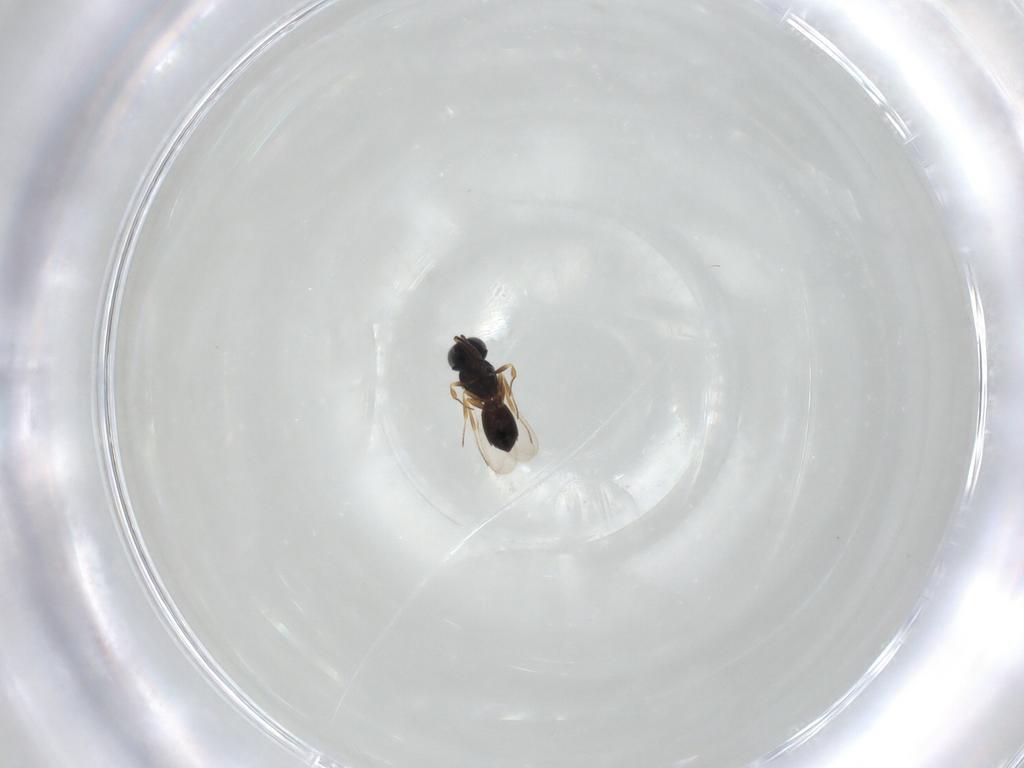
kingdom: Animalia
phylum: Arthropoda
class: Insecta
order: Hymenoptera
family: Scelionidae
